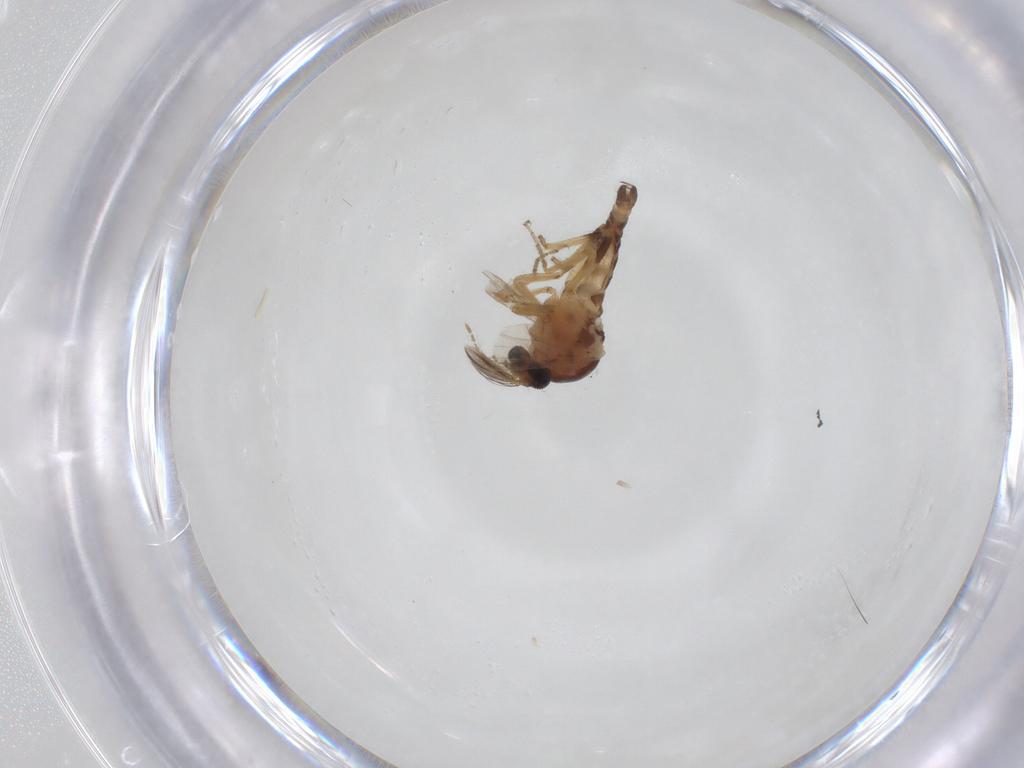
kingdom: Animalia
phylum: Arthropoda
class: Insecta
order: Diptera
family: Ceratopogonidae
